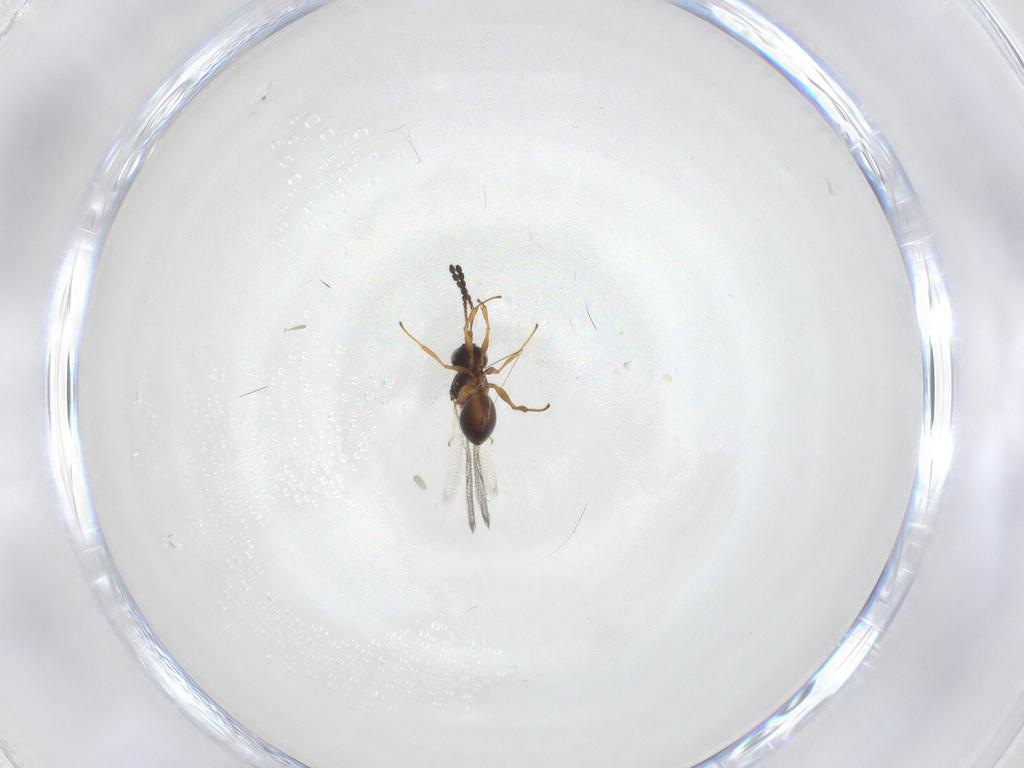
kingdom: Animalia
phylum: Arthropoda
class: Insecta
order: Hymenoptera
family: Figitidae
